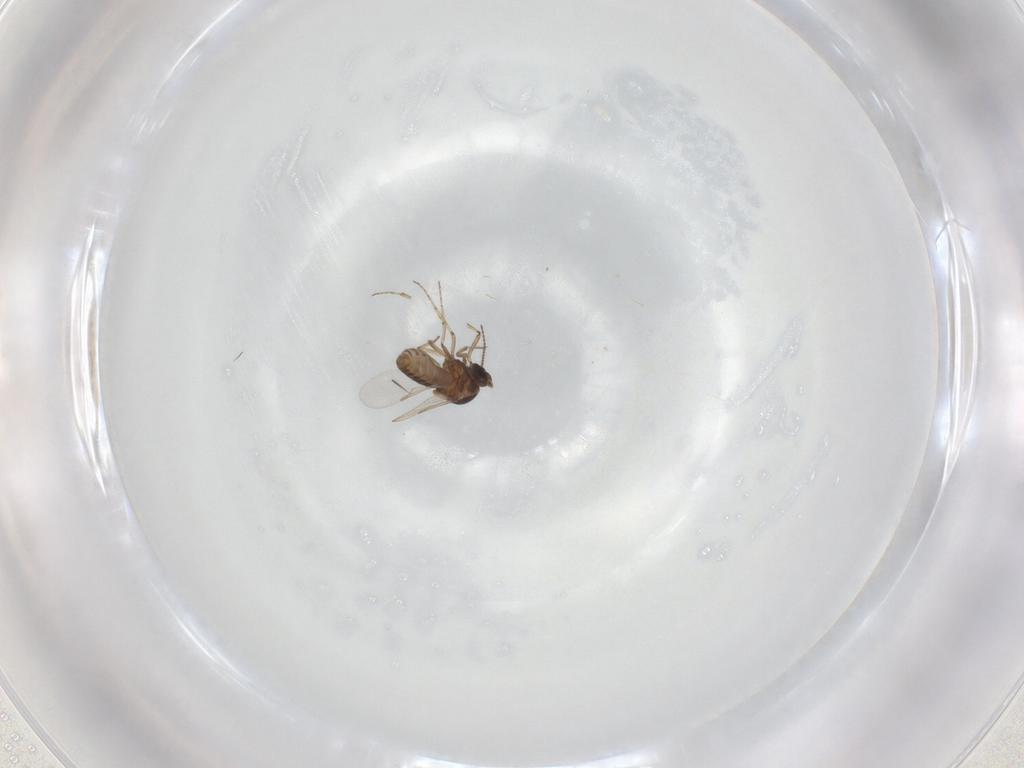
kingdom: Animalia
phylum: Arthropoda
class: Insecta
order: Diptera
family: Ceratopogonidae
